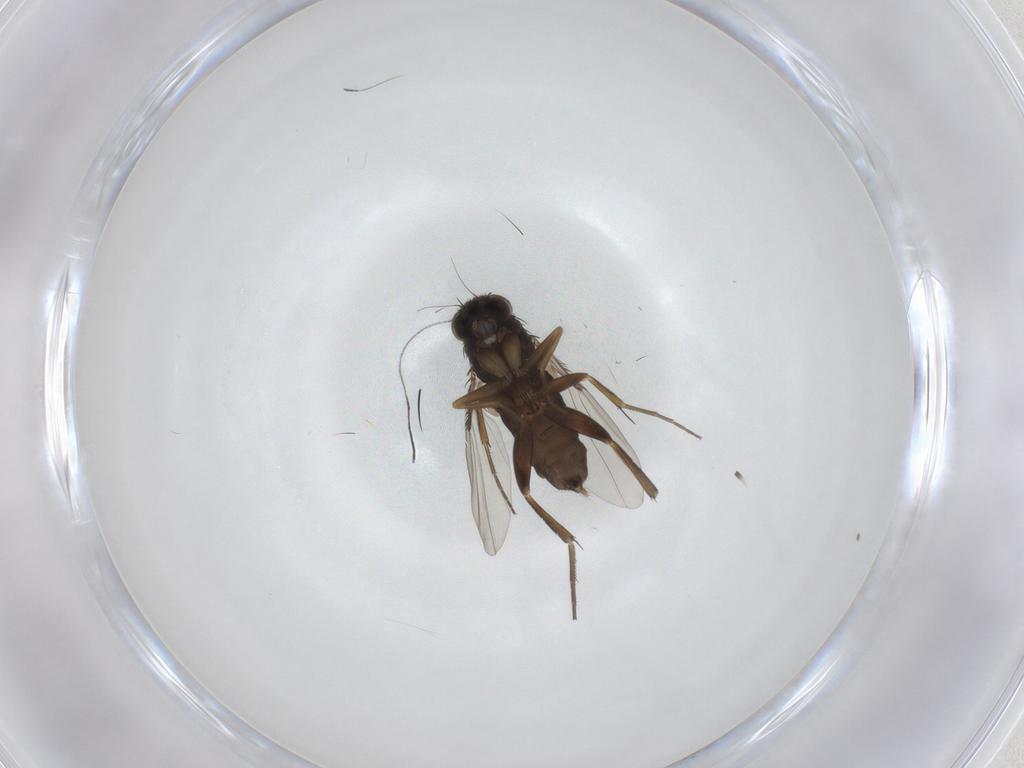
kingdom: Animalia
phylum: Arthropoda
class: Insecta
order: Diptera
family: Phoridae
